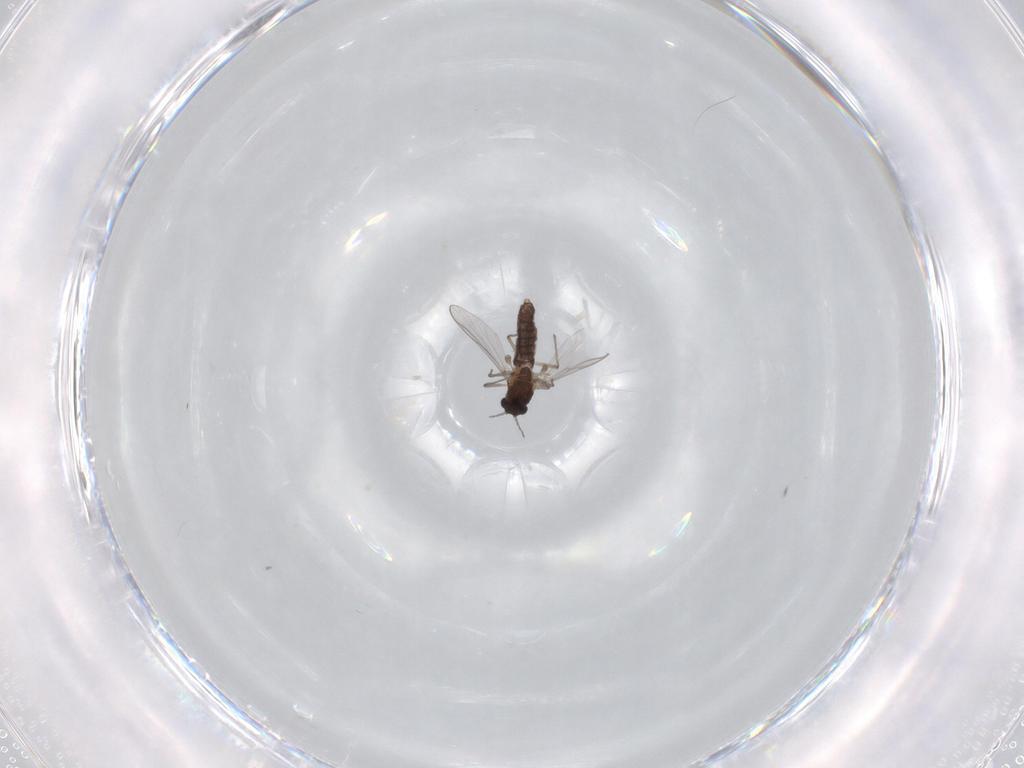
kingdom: Animalia
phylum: Arthropoda
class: Insecta
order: Diptera
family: Chironomidae
